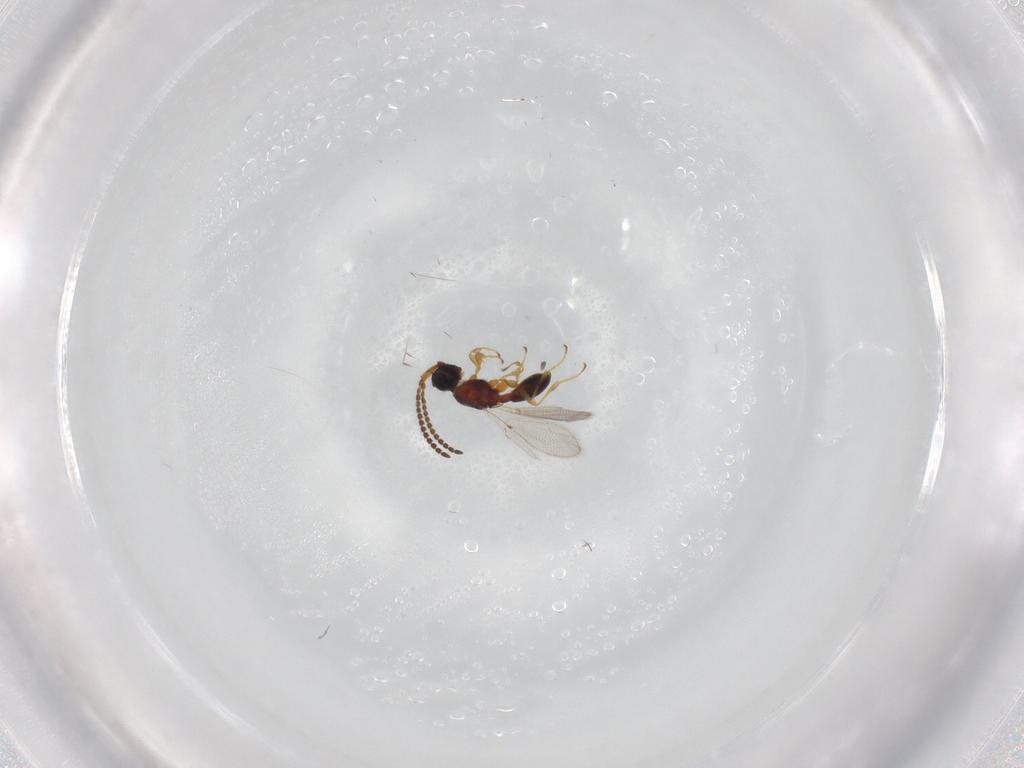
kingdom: Animalia
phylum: Arthropoda
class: Insecta
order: Hymenoptera
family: Diapriidae
